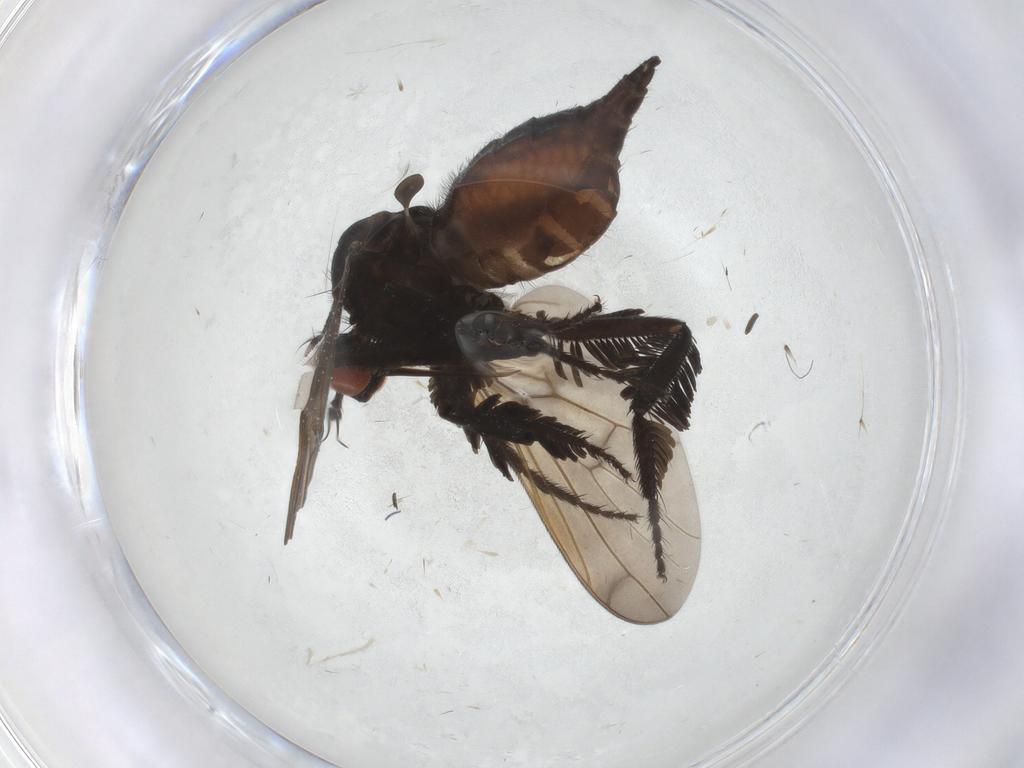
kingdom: Animalia
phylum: Arthropoda
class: Insecta
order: Diptera
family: Empididae
